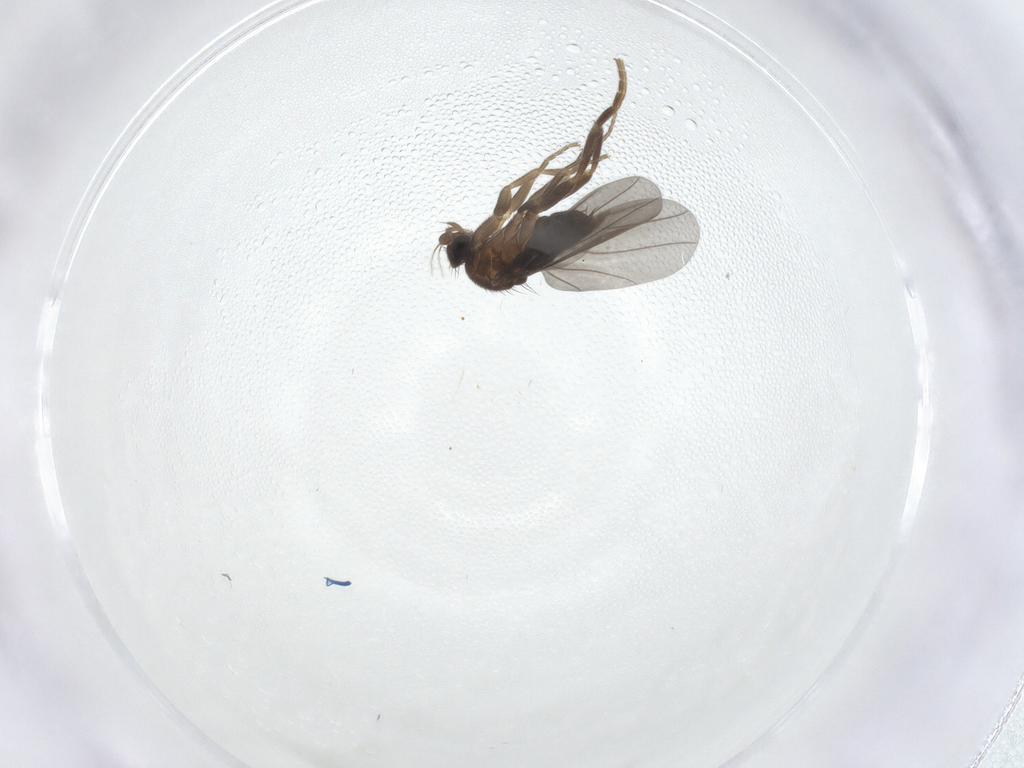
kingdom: Animalia
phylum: Arthropoda
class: Insecta
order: Diptera
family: Phoridae
